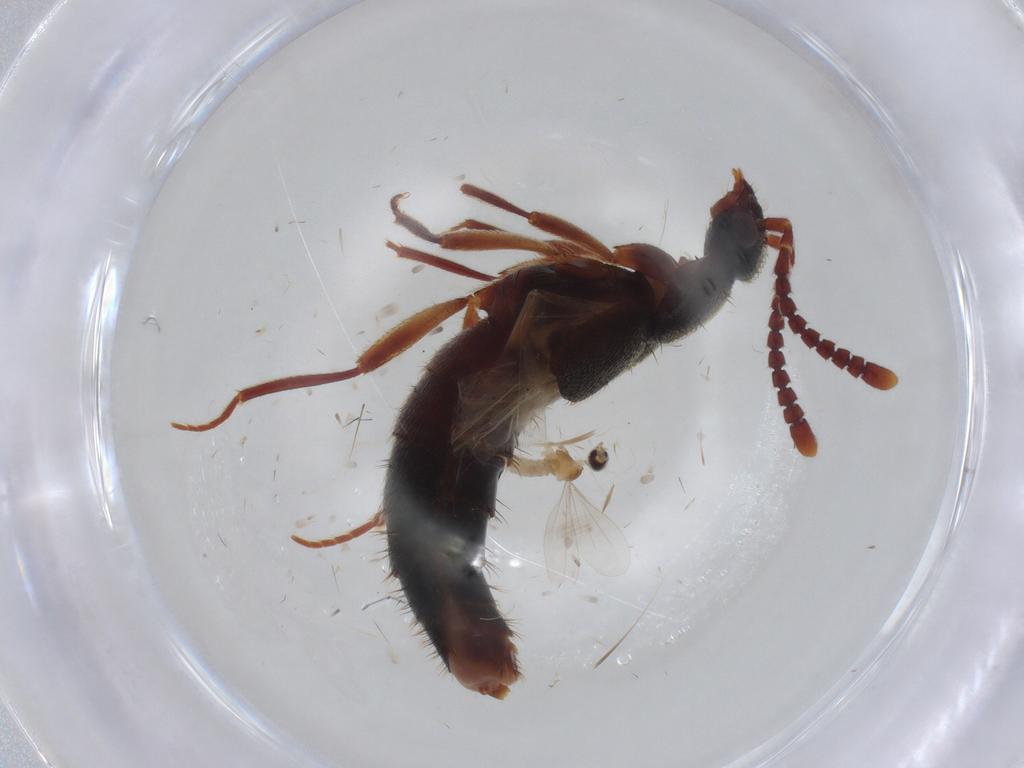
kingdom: Animalia
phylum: Arthropoda
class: Insecta
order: Coleoptera
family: Staphylinidae
